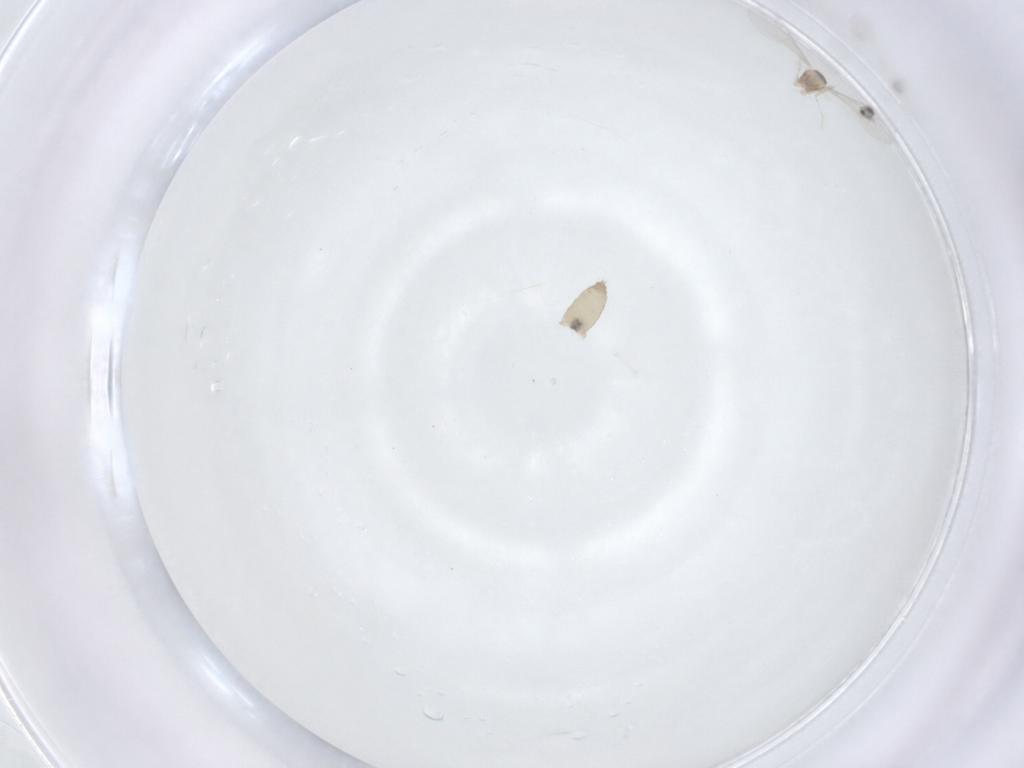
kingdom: Animalia
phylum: Arthropoda
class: Insecta
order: Diptera
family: Cecidomyiidae
